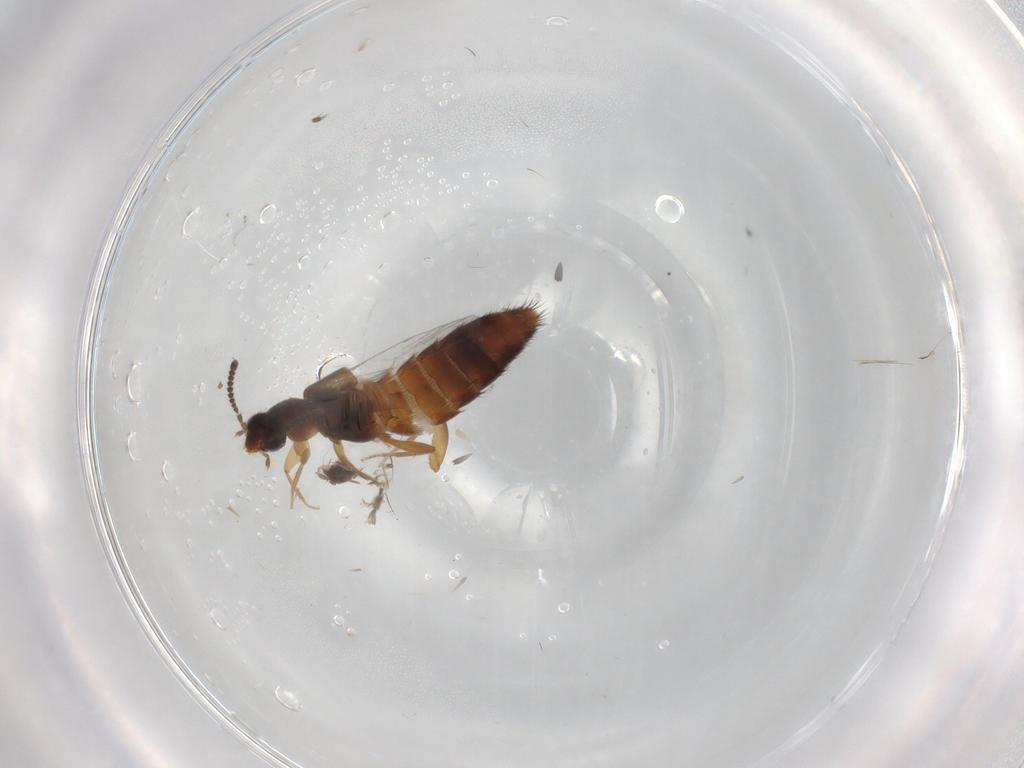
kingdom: Animalia
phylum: Arthropoda
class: Insecta
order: Coleoptera
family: Staphylinidae
